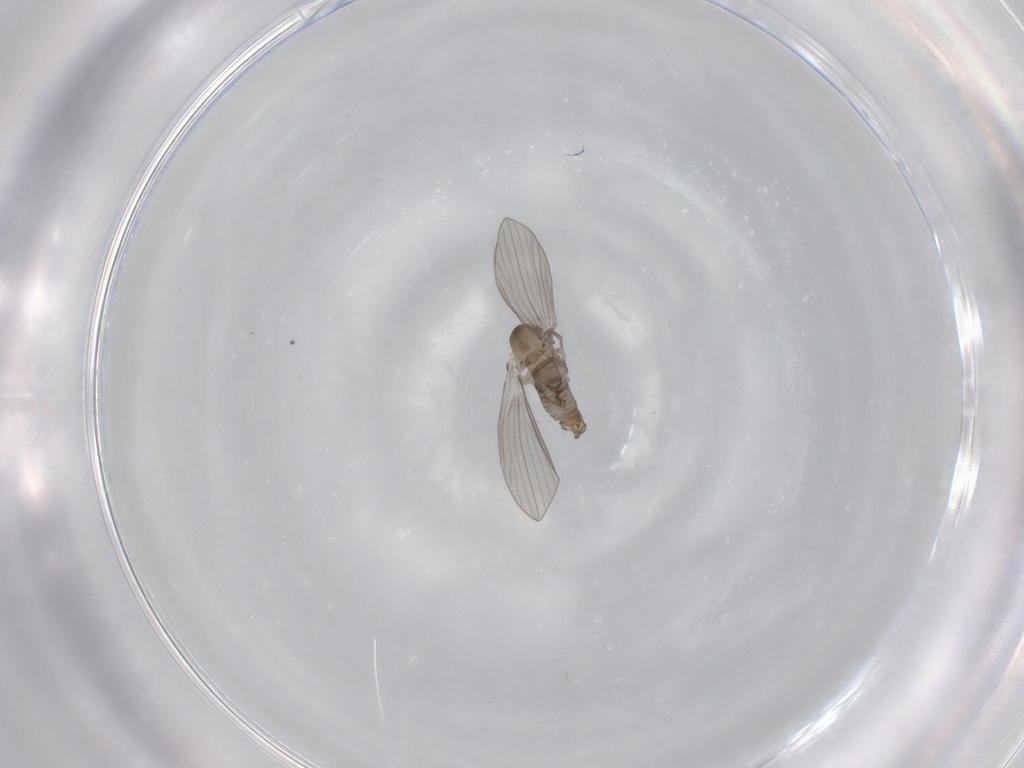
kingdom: Animalia
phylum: Arthropoda
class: Insecta
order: Diptera
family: Psychodidae
